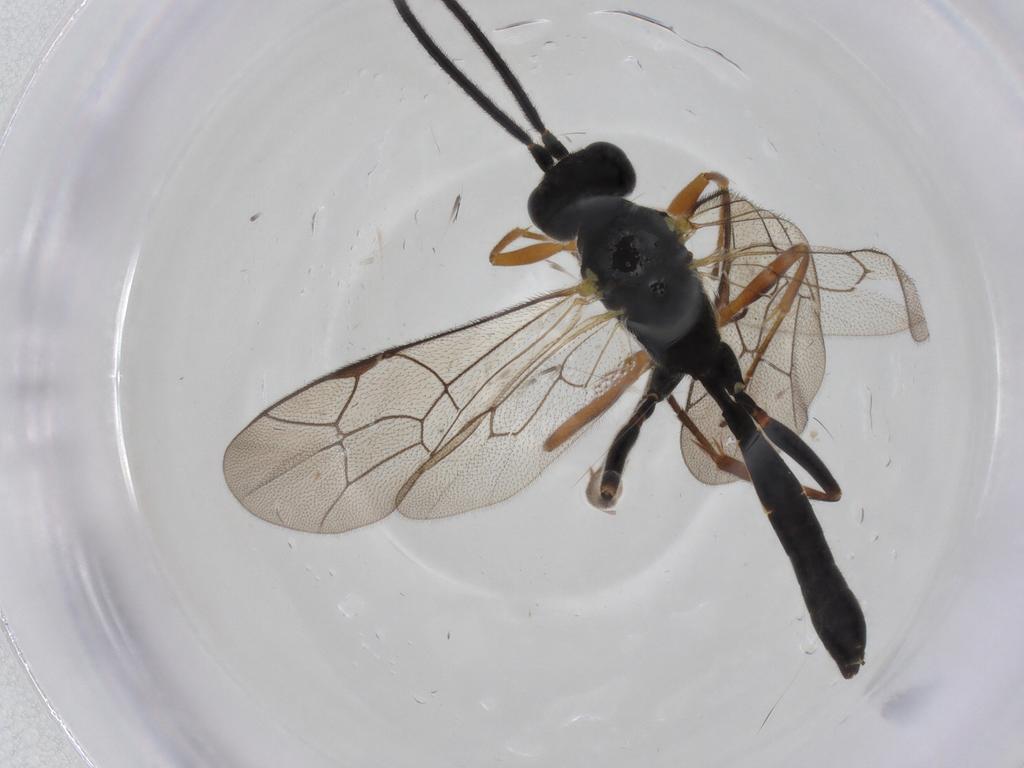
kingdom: Animalia
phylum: Arthropoda
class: Insecta
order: Hymenoptera
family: Ichneumonidae
